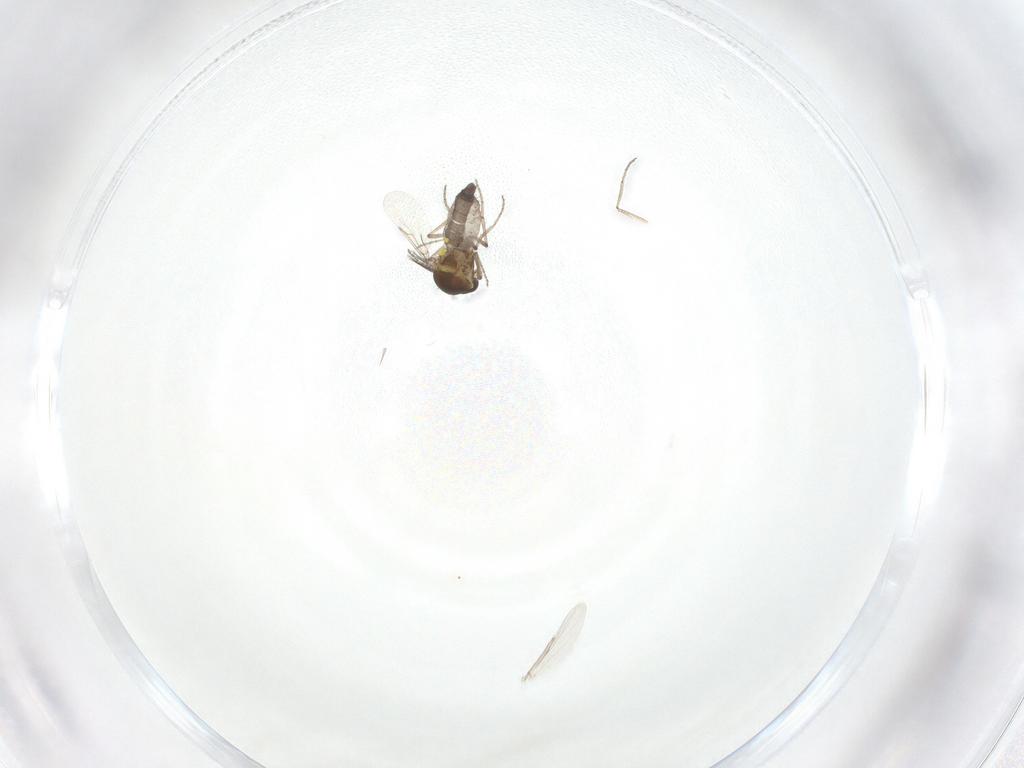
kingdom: Animalia
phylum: Arthropoda
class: Insecta
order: Diptera
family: Ceratopogonidae
